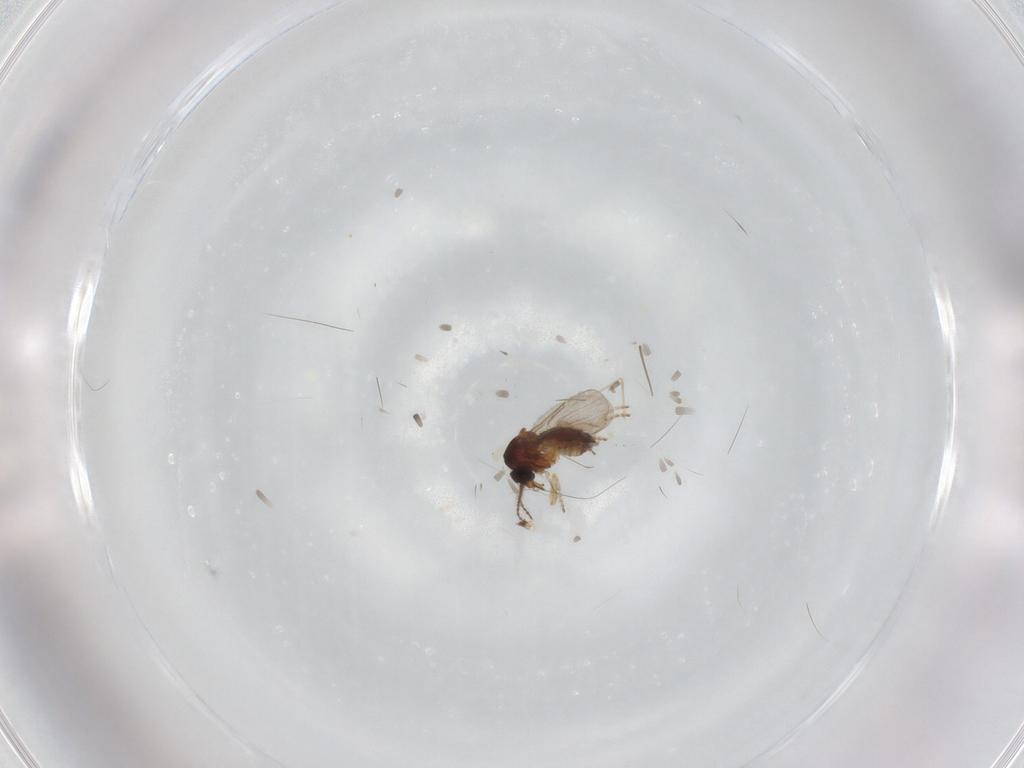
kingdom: Animalia
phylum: Arthropoda
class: Insecta
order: Diptera
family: Ceratopogonidae
